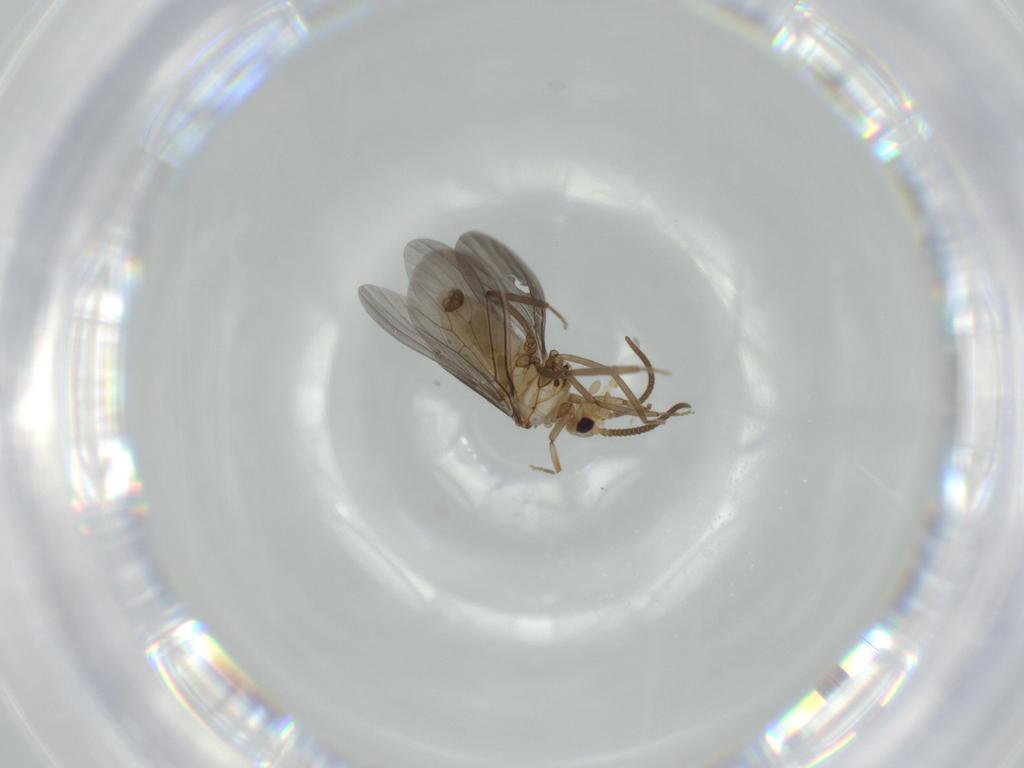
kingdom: Animalia
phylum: Arthropoda
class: Insecta
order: Neuroptera
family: Coniopterygidae
